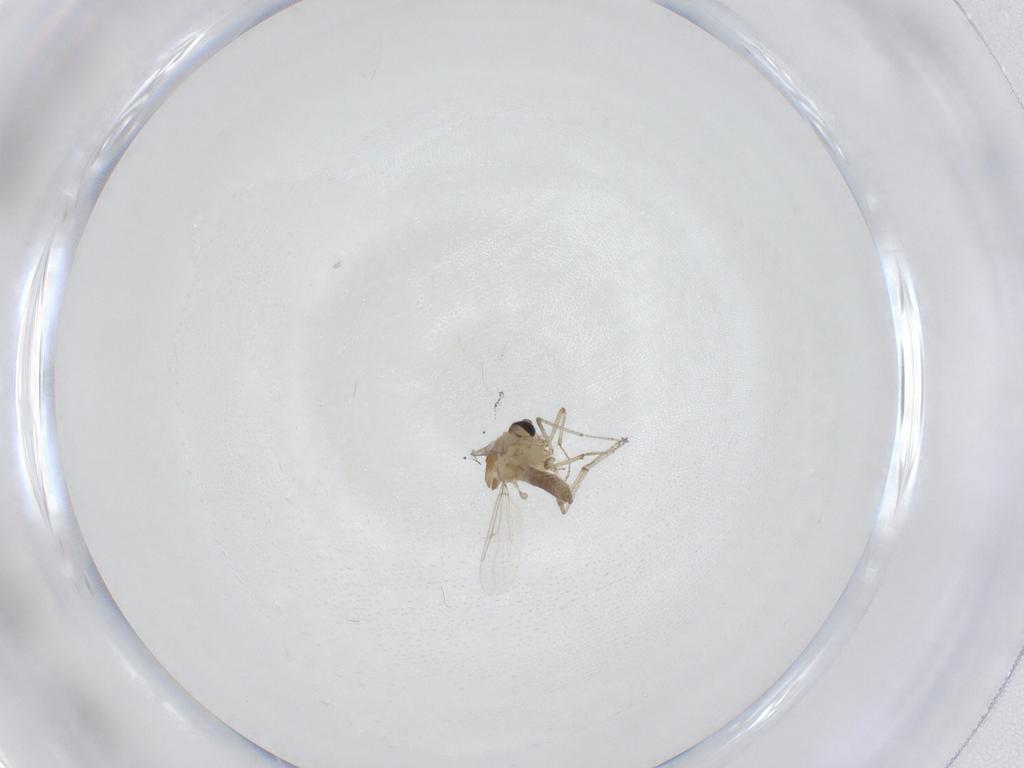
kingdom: Animalia
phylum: Arthropoda
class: Insecta
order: Diptera
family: Ceratopogonidae
